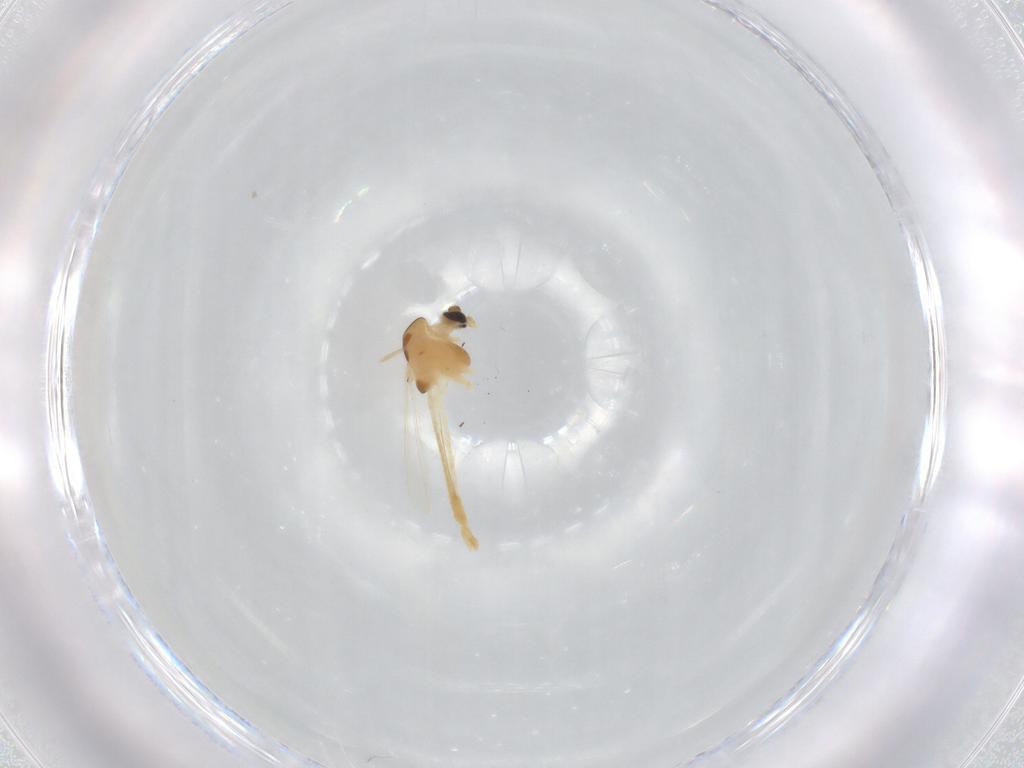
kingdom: Animalia
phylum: Arthropoda
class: Insecta
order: Diptera
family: Chironomidae
